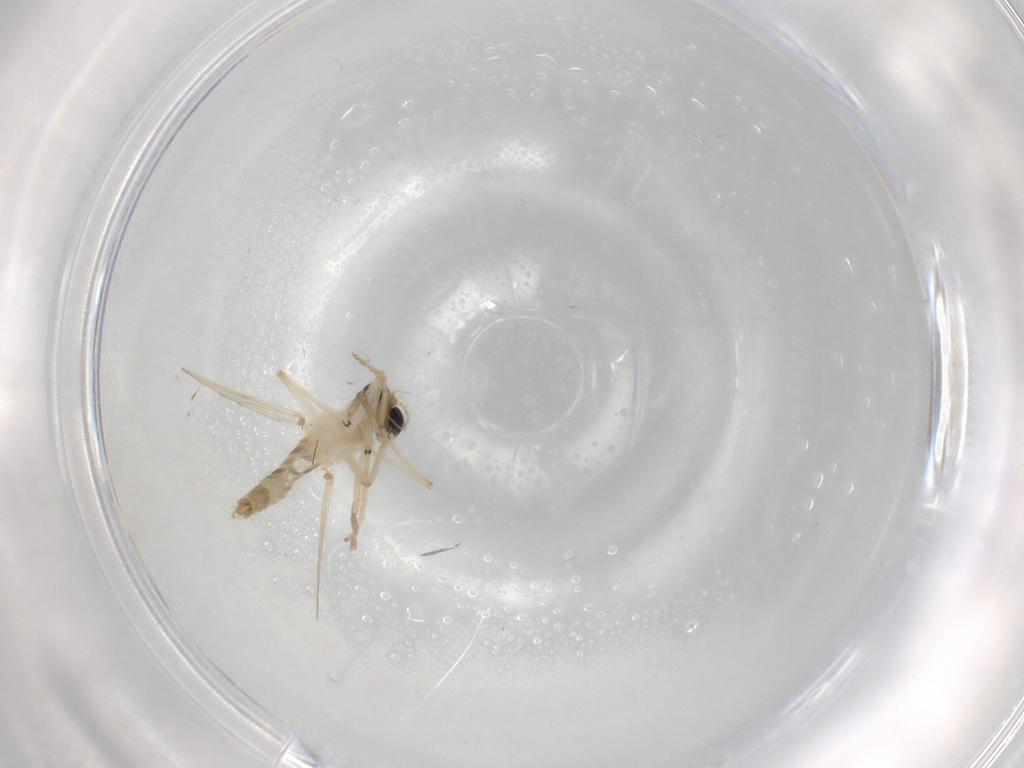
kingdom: Animalia
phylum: Arthropoda
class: Insecta
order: Diptera
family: Chironomidae
